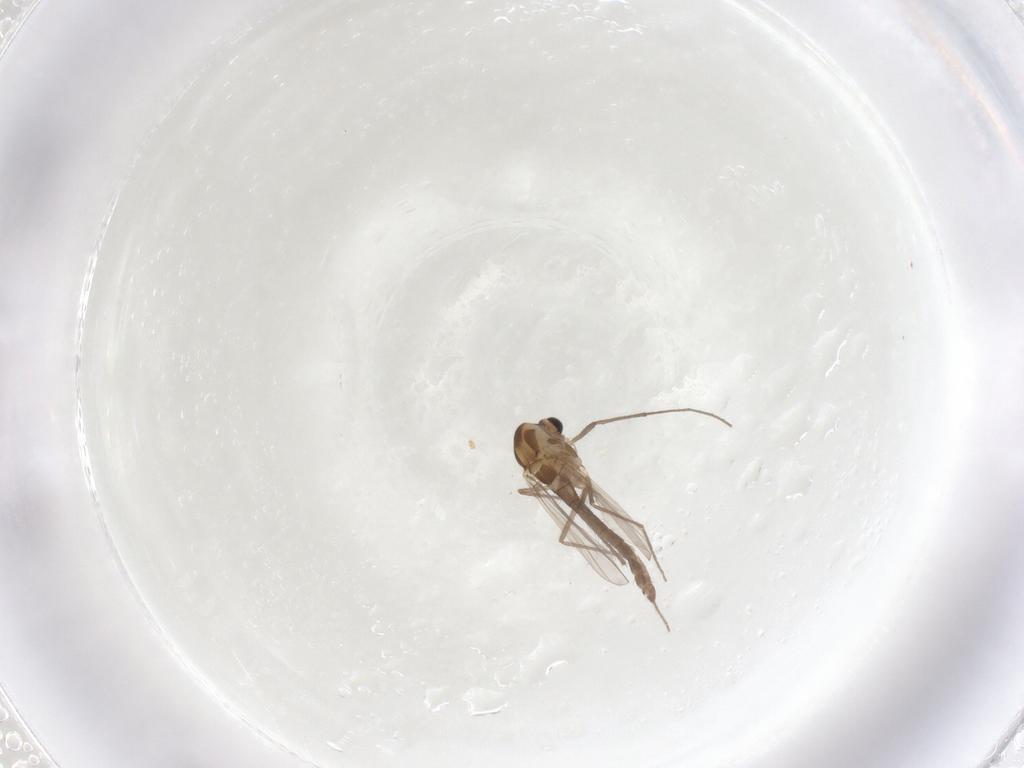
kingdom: Animalia
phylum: Arthropoda
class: Insecta
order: Diptera
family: Chironomidae
